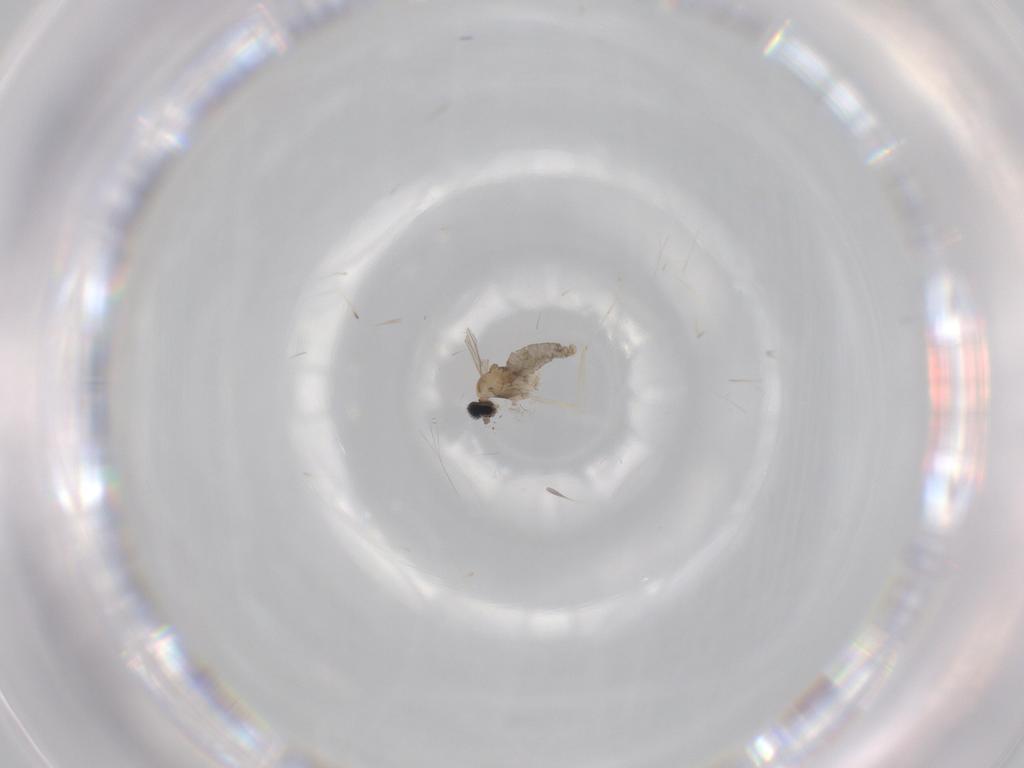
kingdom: Animalia
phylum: Arthropoda
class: Insecta
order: Diptera
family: Cecidomyiidae
